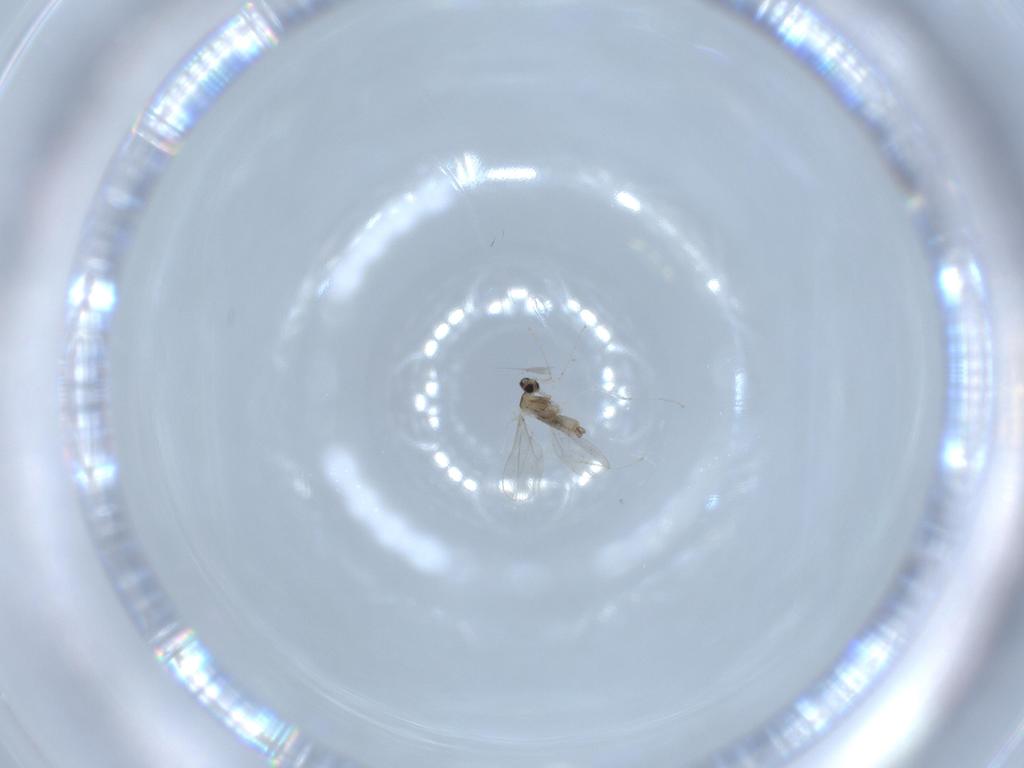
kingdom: Animalia
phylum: Arthropoda
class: Insecta
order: Diptera
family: Cecidomyiidae
